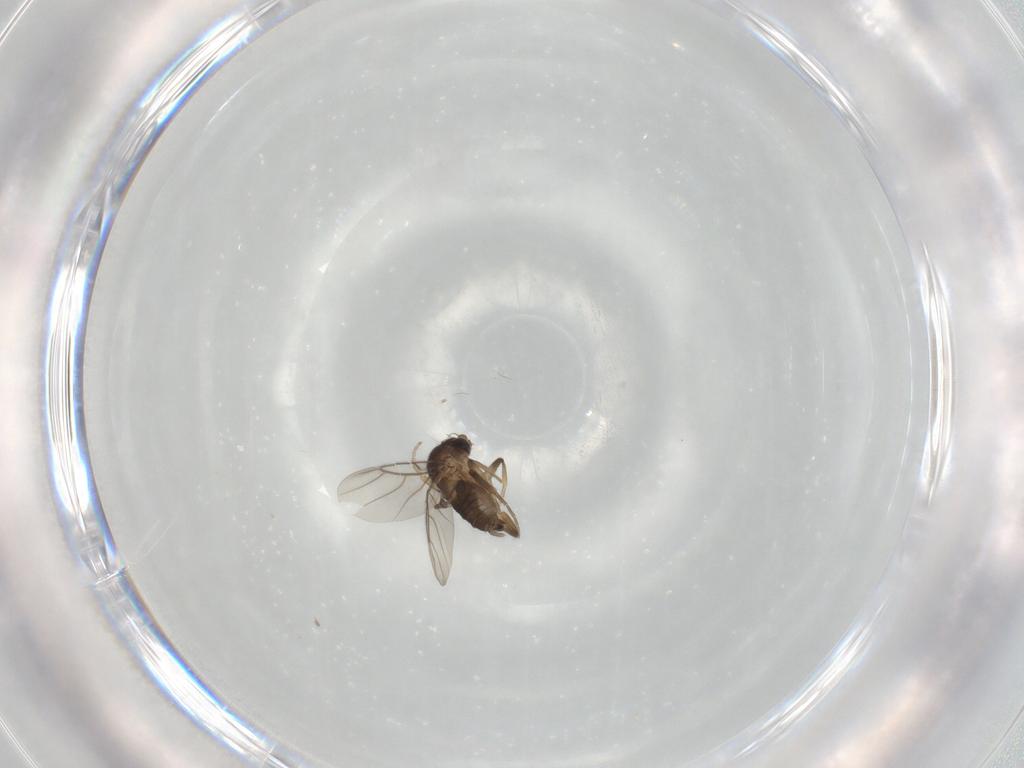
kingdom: Animalia
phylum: Arthropoda
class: Insecta
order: Diptera
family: Phoridae
